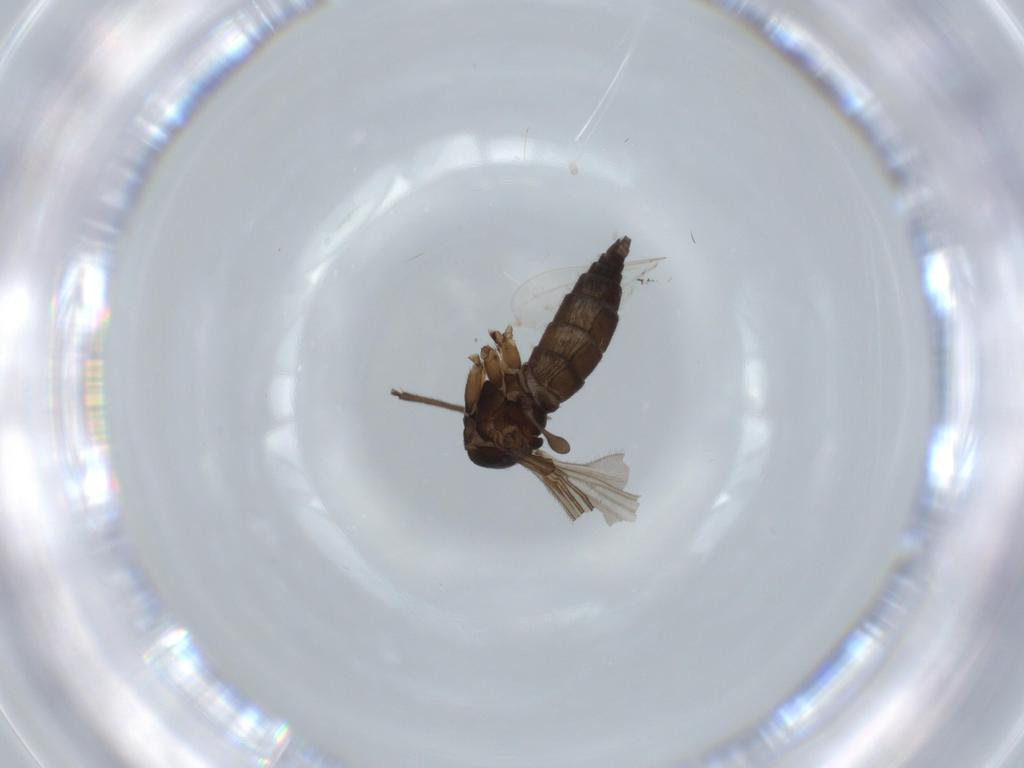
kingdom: Animalia
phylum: Arthropoda
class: Insecta
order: Diptera
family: Sciaridae
